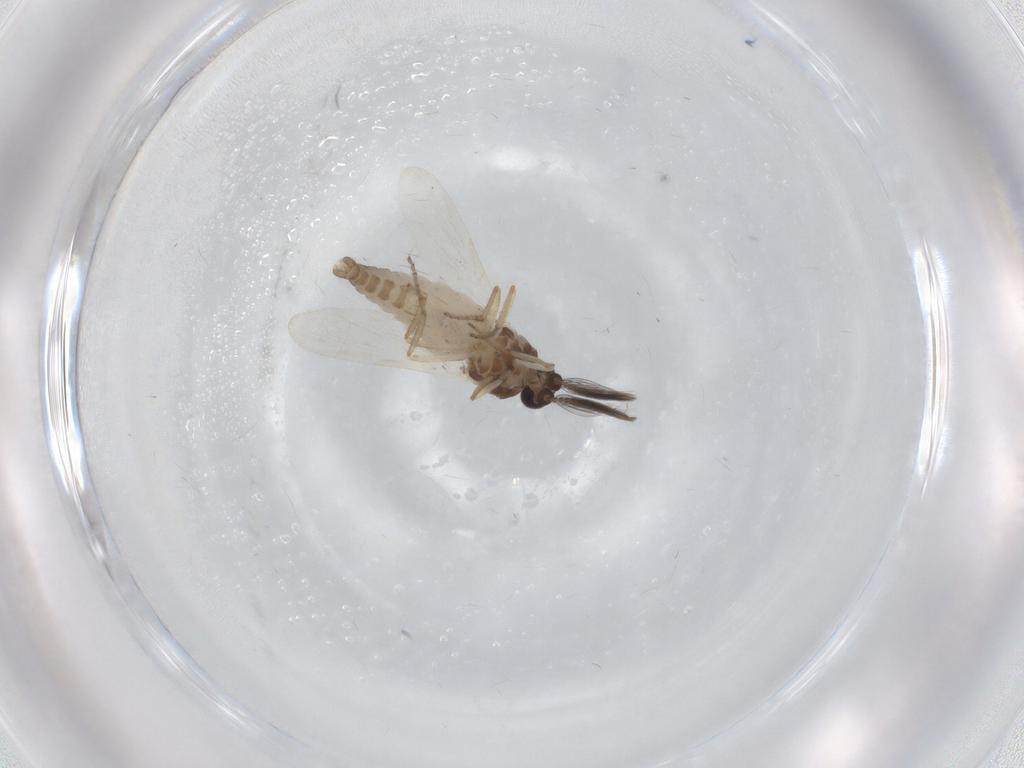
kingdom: Animalia
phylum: Arthropoda
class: Insecta
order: Diptera
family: Ceratopogonidae
